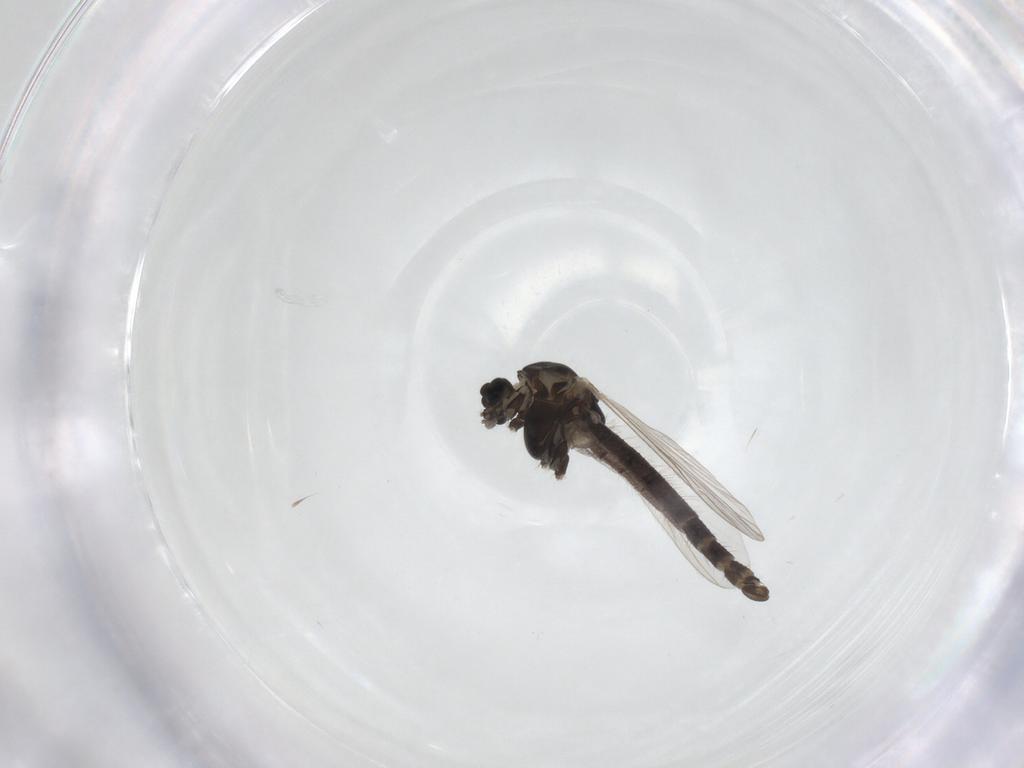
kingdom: Animalia
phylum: Arthropoda
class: Insecta
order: Diptera
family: Chironomidae
